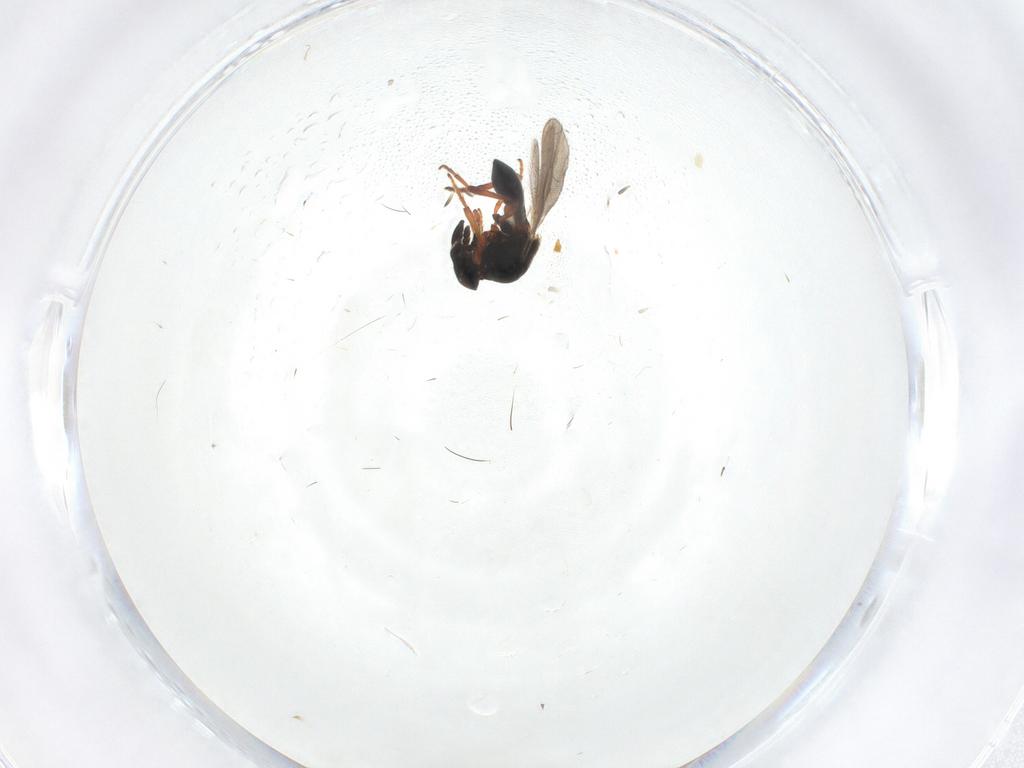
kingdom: Animalia
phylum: Arthropoda
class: Insecta
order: Hymenoptera
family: Platygastridae
